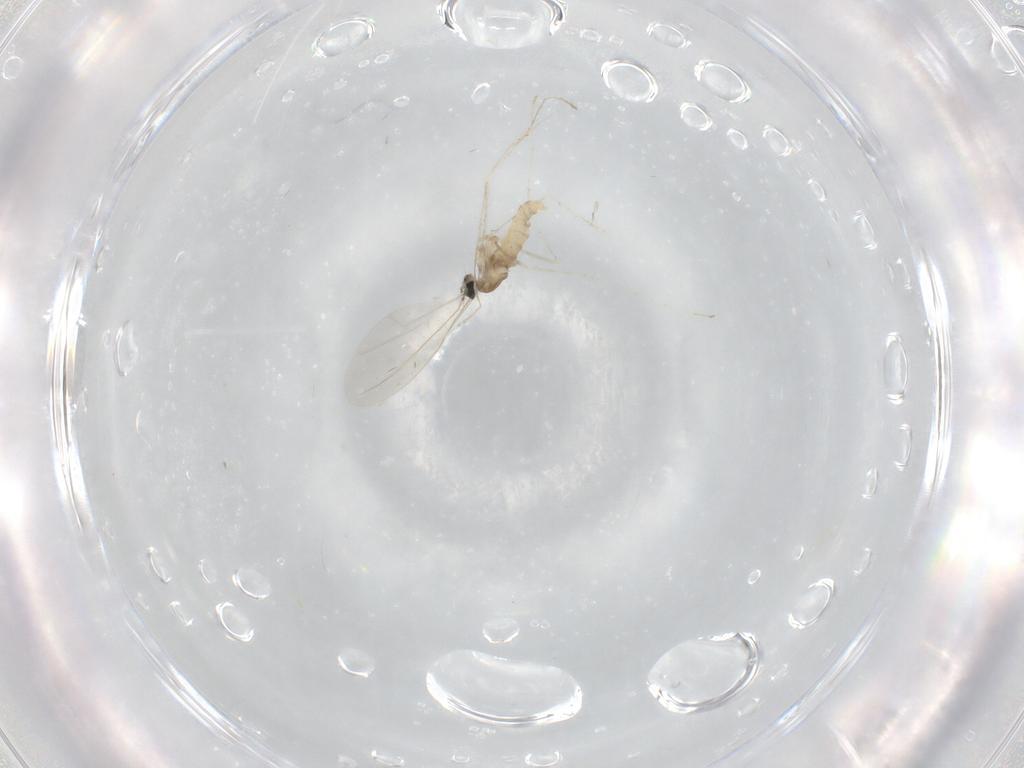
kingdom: Animalia
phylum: Arthropoda
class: Insecta
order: Diptera
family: Cecidomyiidae
